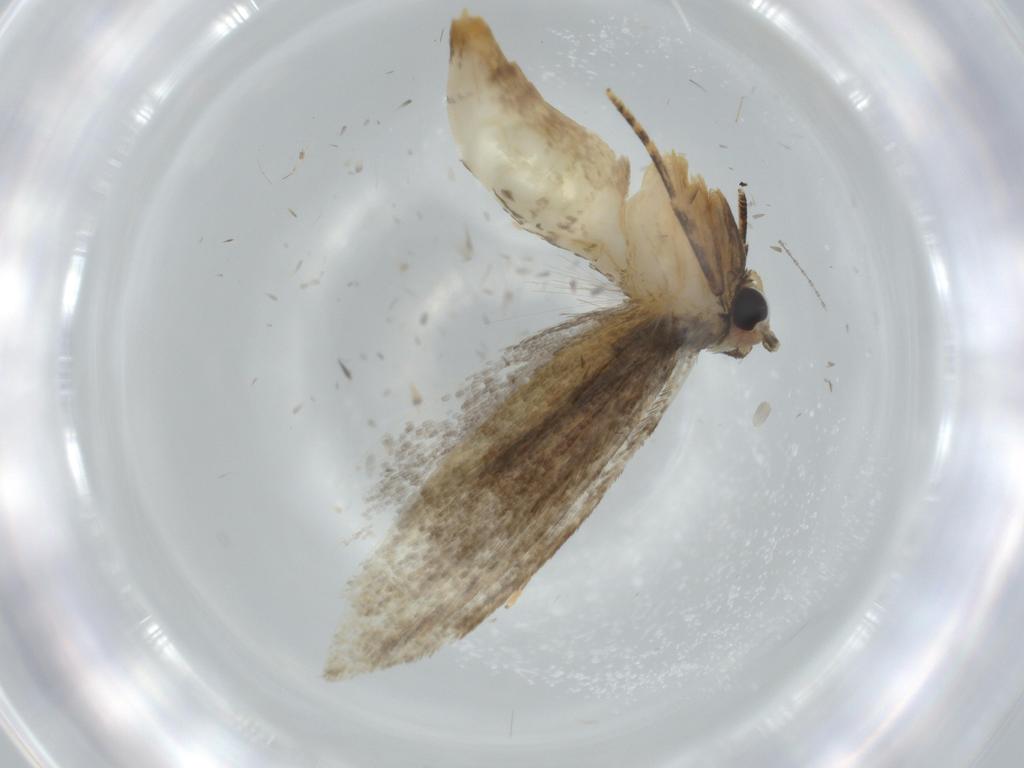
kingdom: Animalia
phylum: Arthropoda
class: Insecta
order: Lepidoptera
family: Tineidae
